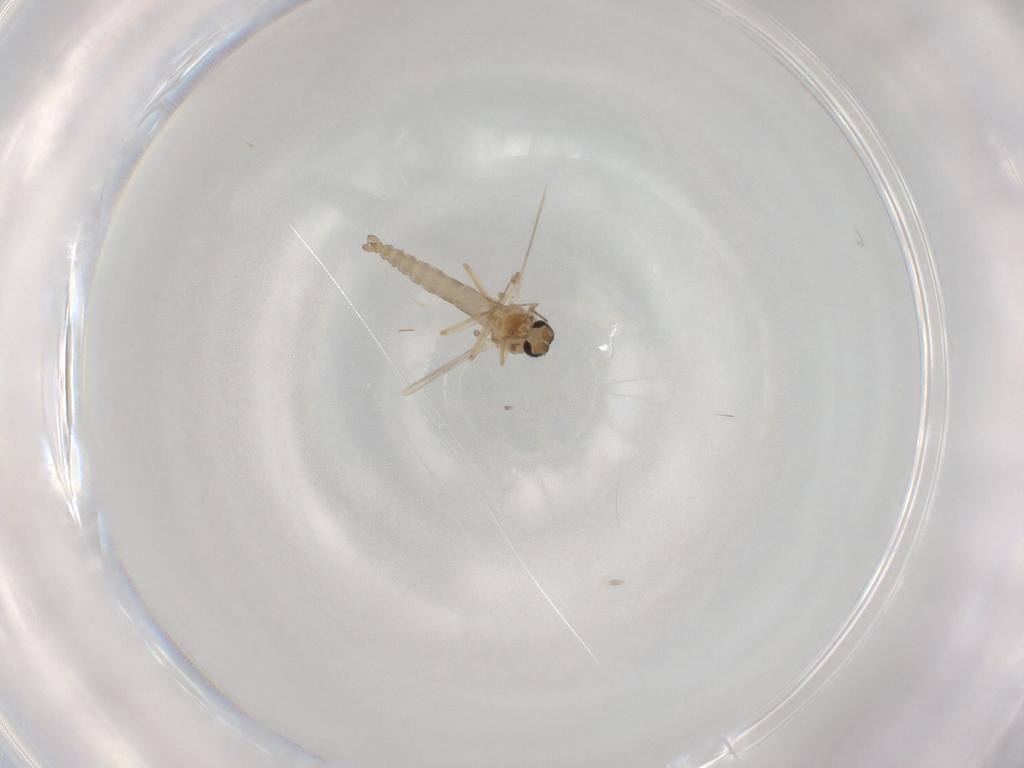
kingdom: Animalia
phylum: Arthropoda
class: Insecta
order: Diptera
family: Ceratopogonidae
